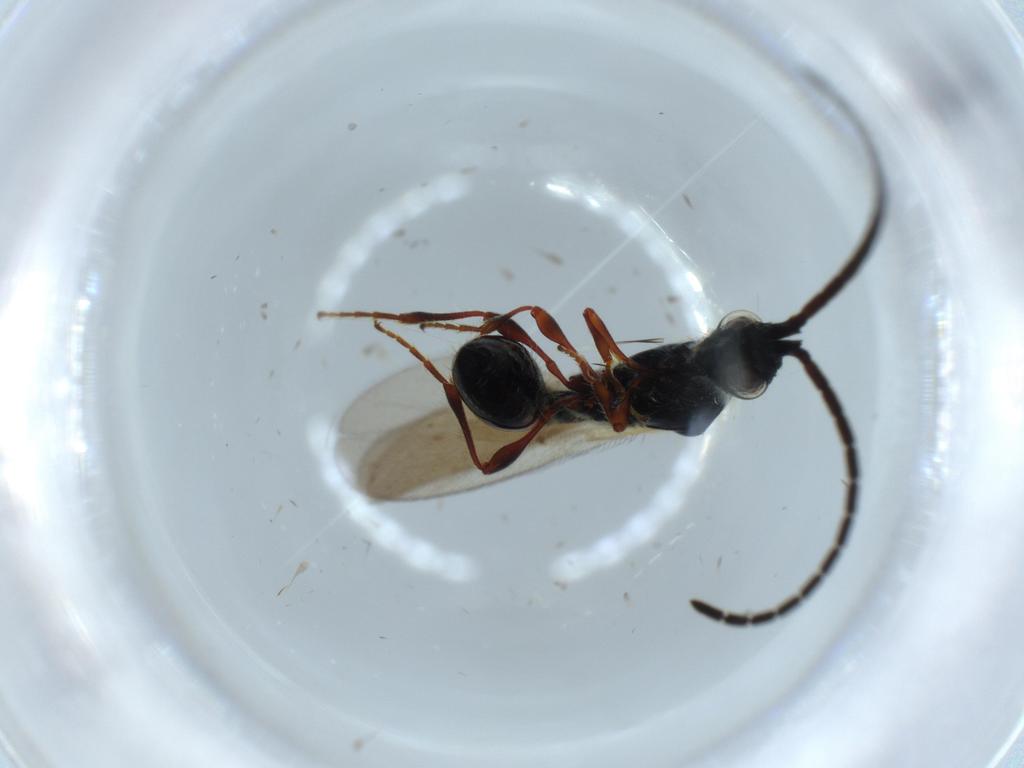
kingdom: Animalia
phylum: Arthropoda
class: Insecta
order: Hymenoptera
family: Diapriidae
